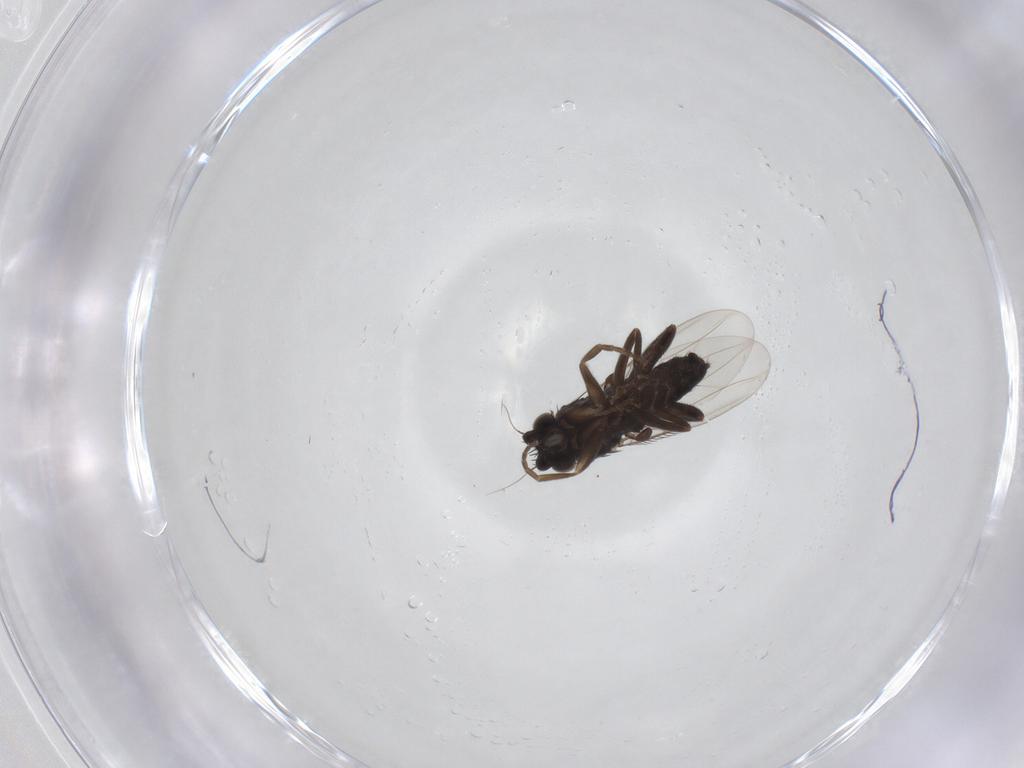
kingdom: Animalia
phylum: Arthropoda
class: Insecta
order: Diptera
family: Phoridae
